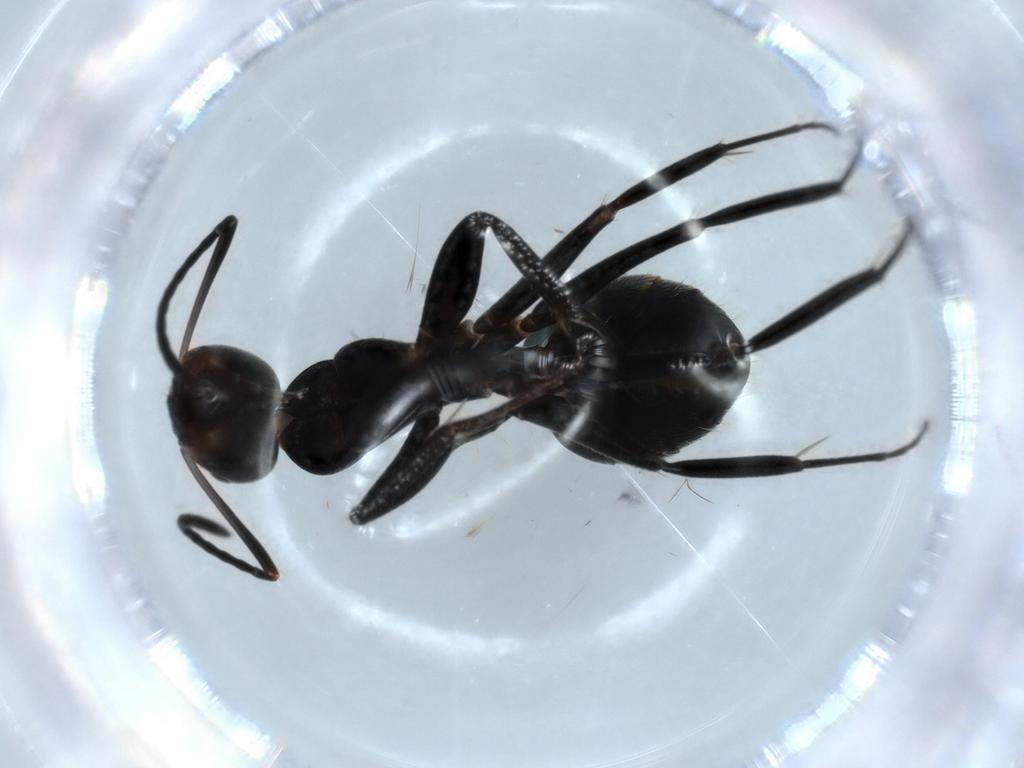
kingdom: Animalia
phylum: Arthropoda
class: Insecta
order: Hymenoptera
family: Formicidae
